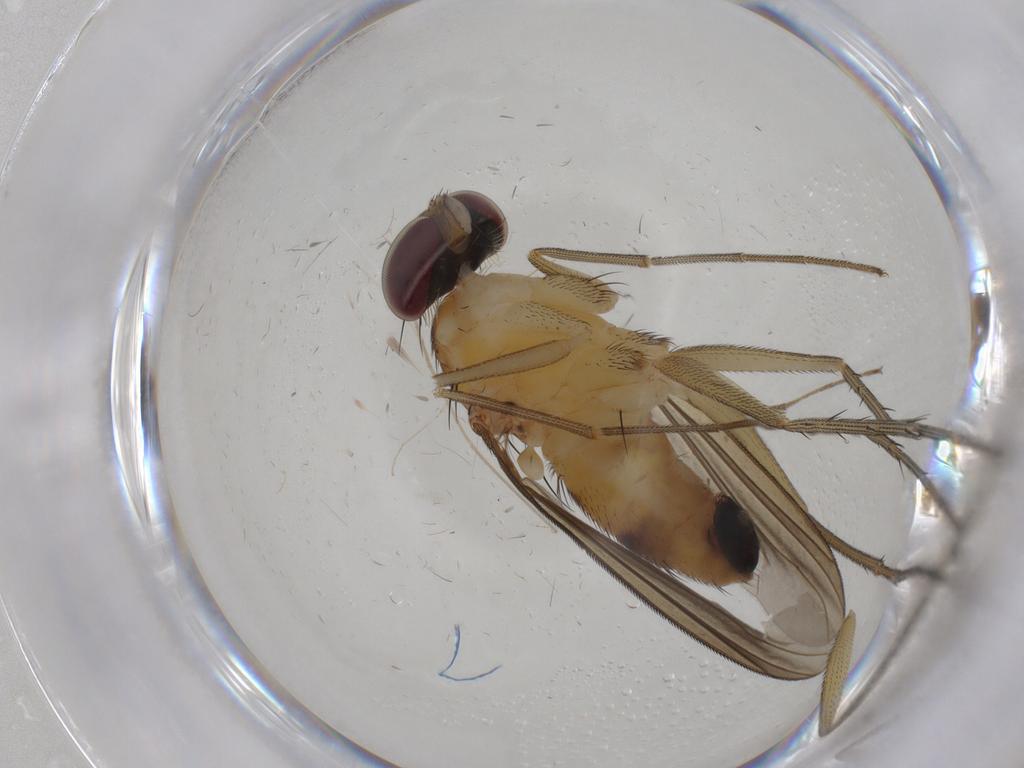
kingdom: Animalia
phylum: Arthropoda
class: Insecta
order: Diptera
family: Dolichopodidae
